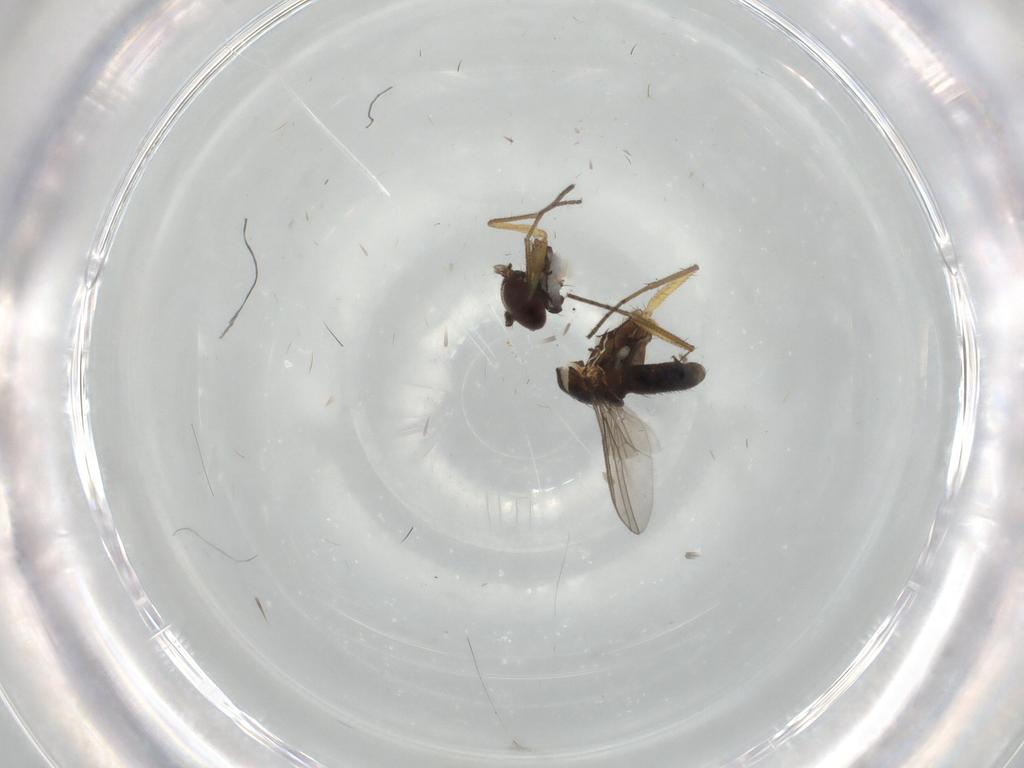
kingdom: Animalia
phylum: Arthropoda
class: Insecta
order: Diptera
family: Dolichopodidae
